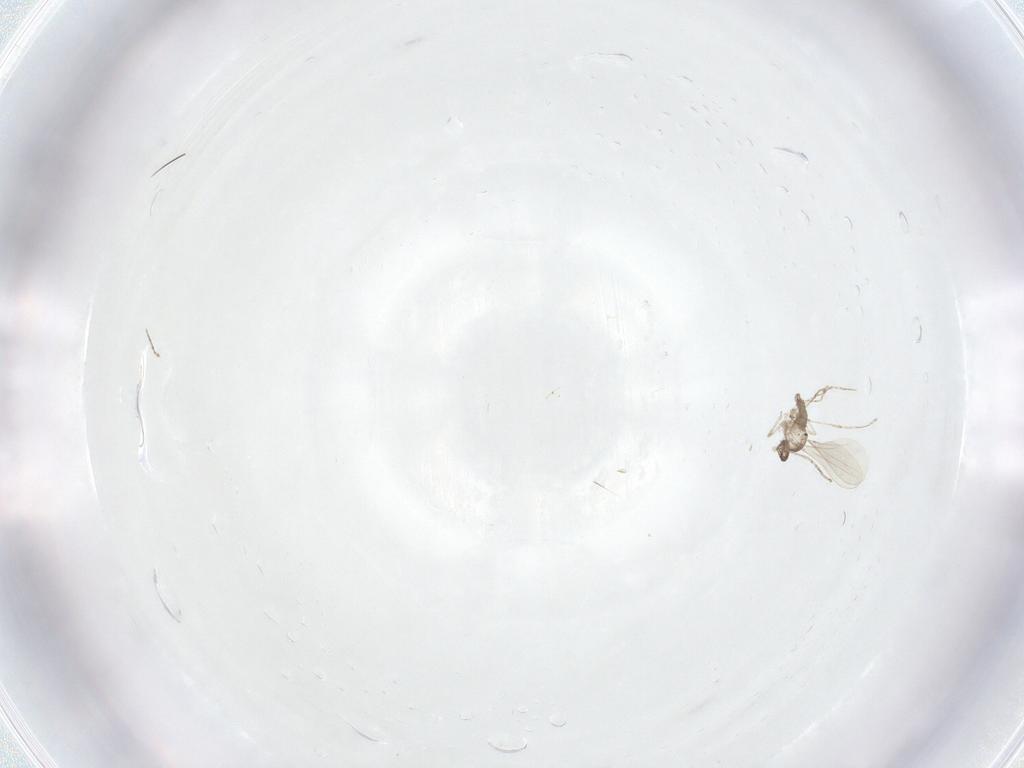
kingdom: Animalia
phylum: Arthropoda
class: Insecta
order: Diptera
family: Cecidomyiidae
